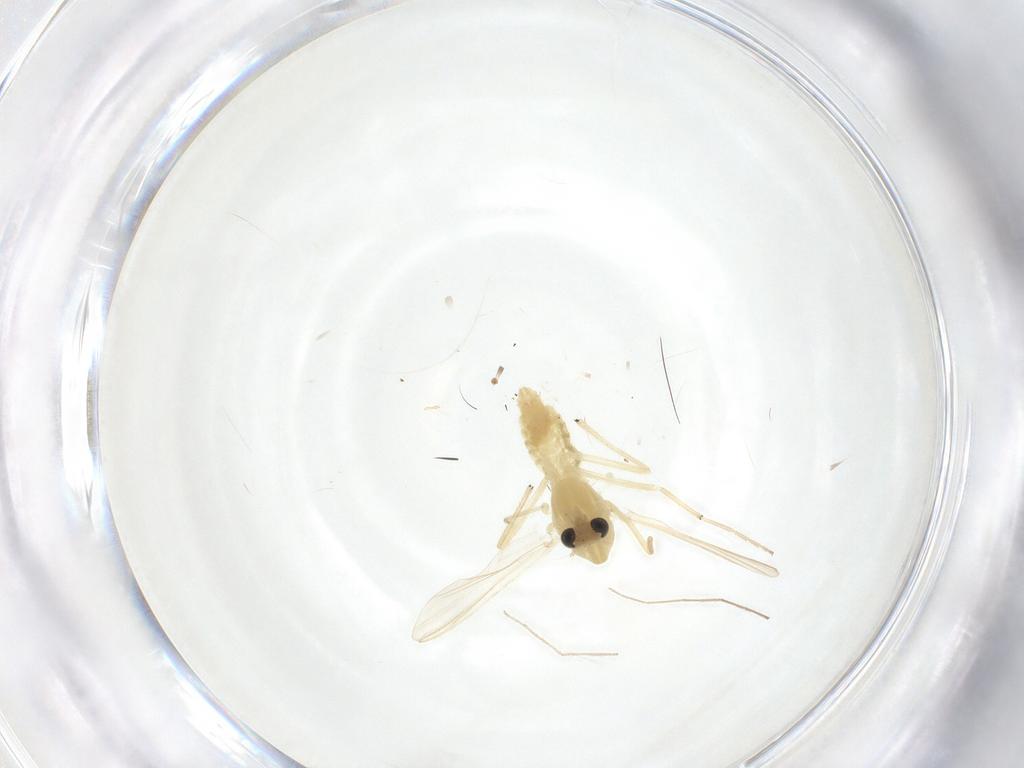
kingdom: Animalia
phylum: Arthropoda
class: Insecta
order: Diptera
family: Chironomidae
